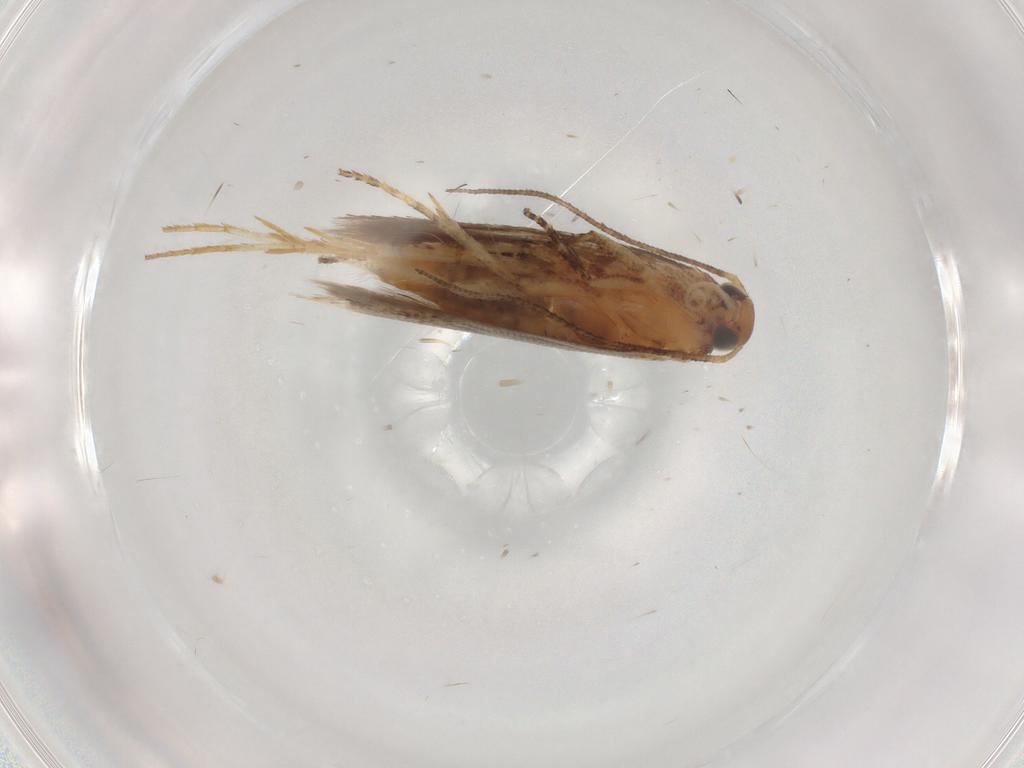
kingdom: Animalia
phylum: Arthropoda
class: Insecta
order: Lepidoptera
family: Gelechiidae
